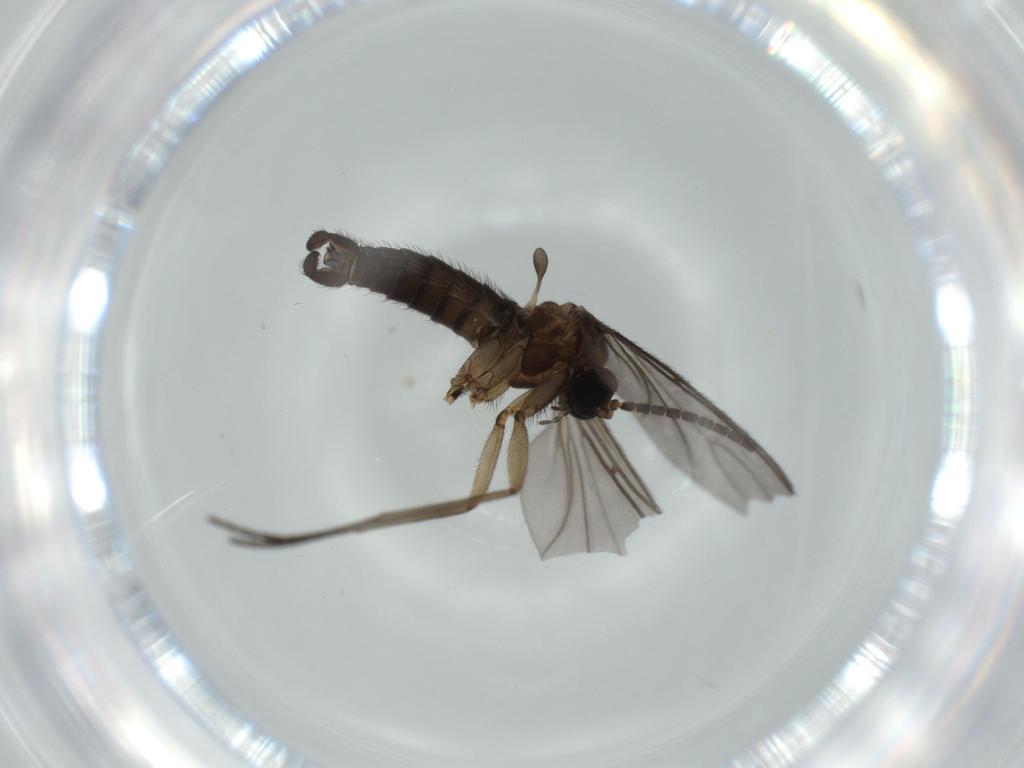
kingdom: Animalia
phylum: Arthropoda
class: Insecta
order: Diptera
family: Sciaridae
